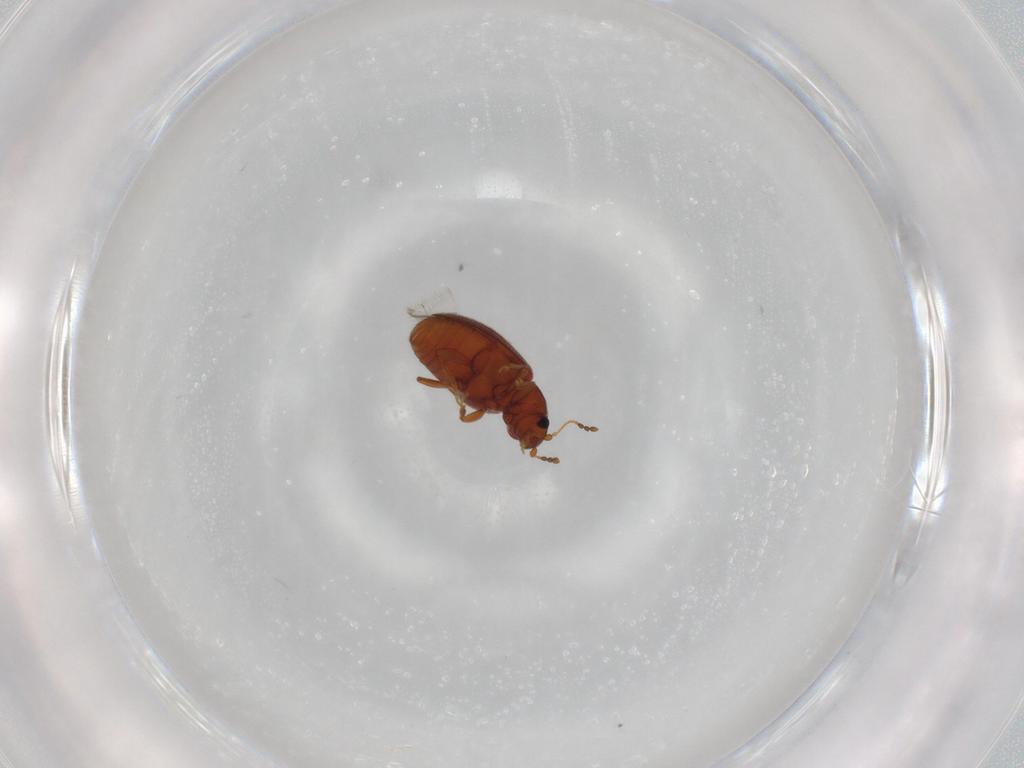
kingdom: Animalia
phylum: Arthropoda
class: Insecta
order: Coleoptera
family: Latridiidae
